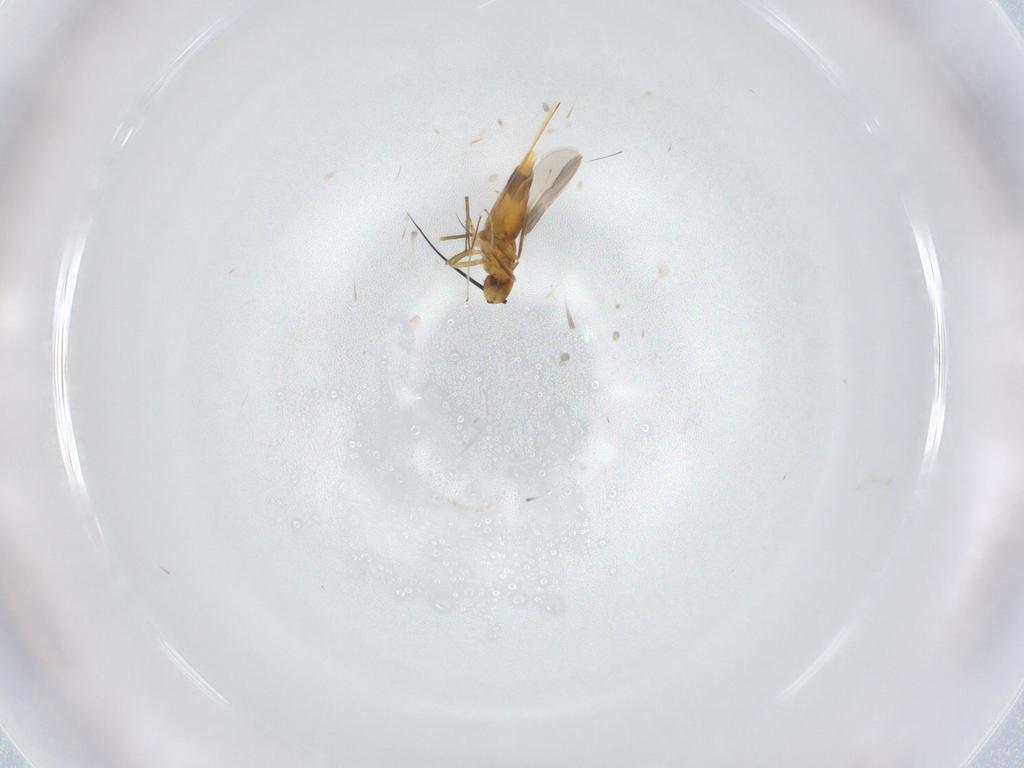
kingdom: Animalia
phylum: Arthropoda
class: Insecta
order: Hymenoptera
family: Aphelinidae
